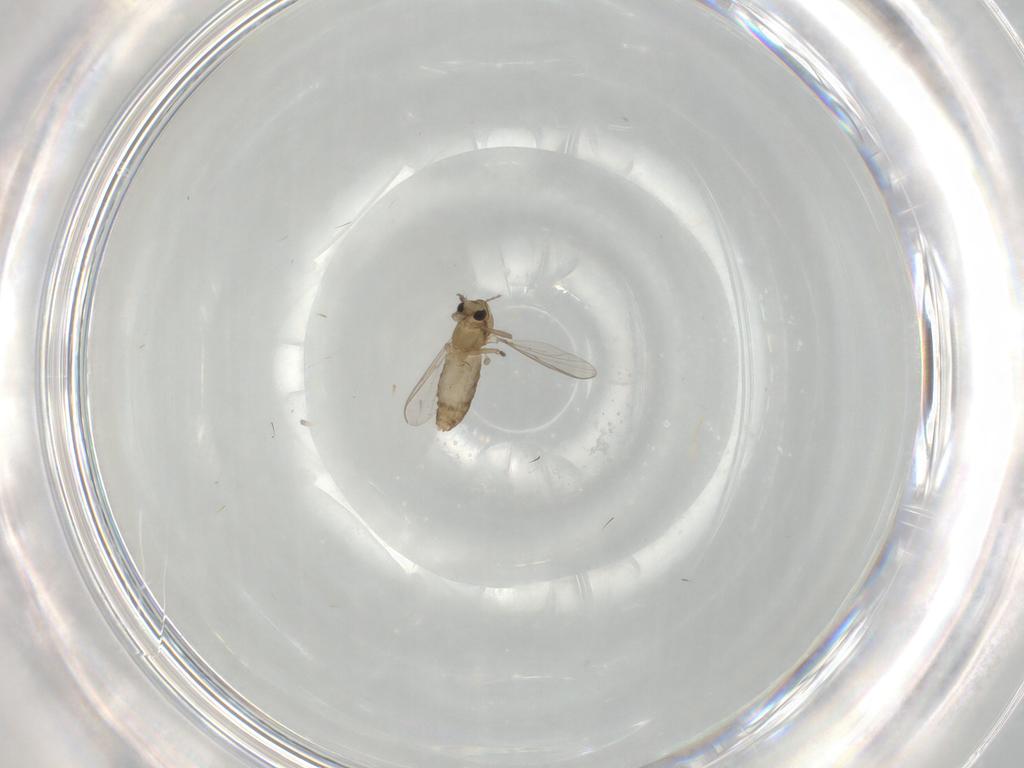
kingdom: Animalia
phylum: Arthropoda
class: Insecta
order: Diptera
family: Chironomidae
